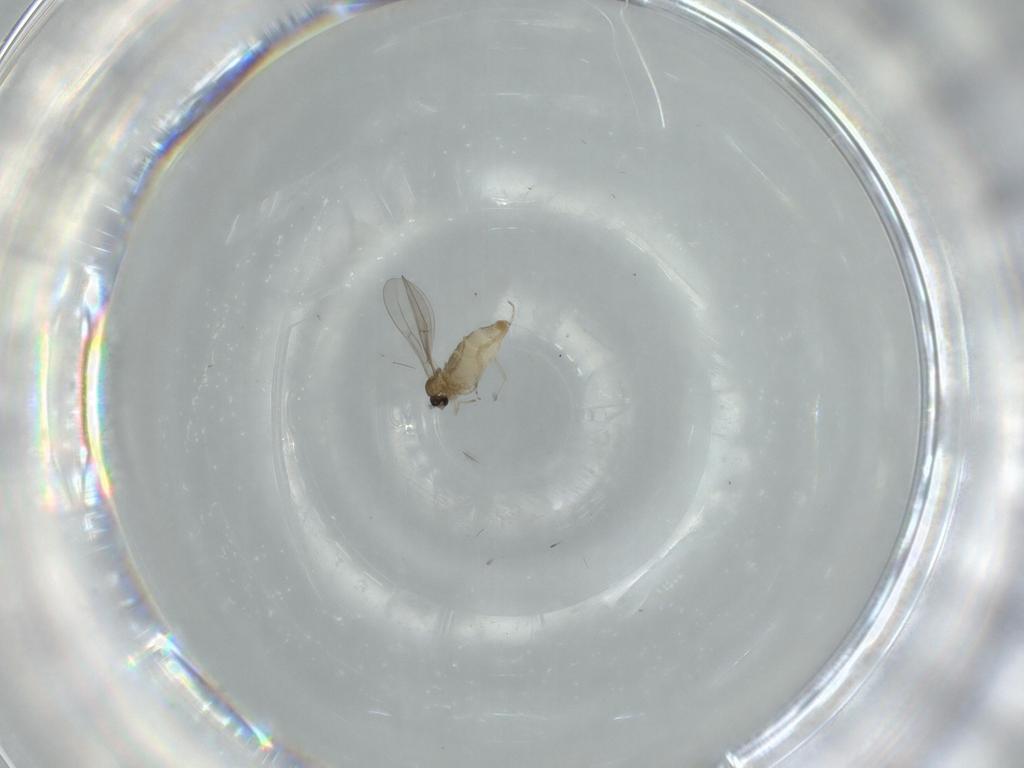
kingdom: Animalia
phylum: Arthropoda
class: Insecta
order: Diptera
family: Cecidomyiidae
